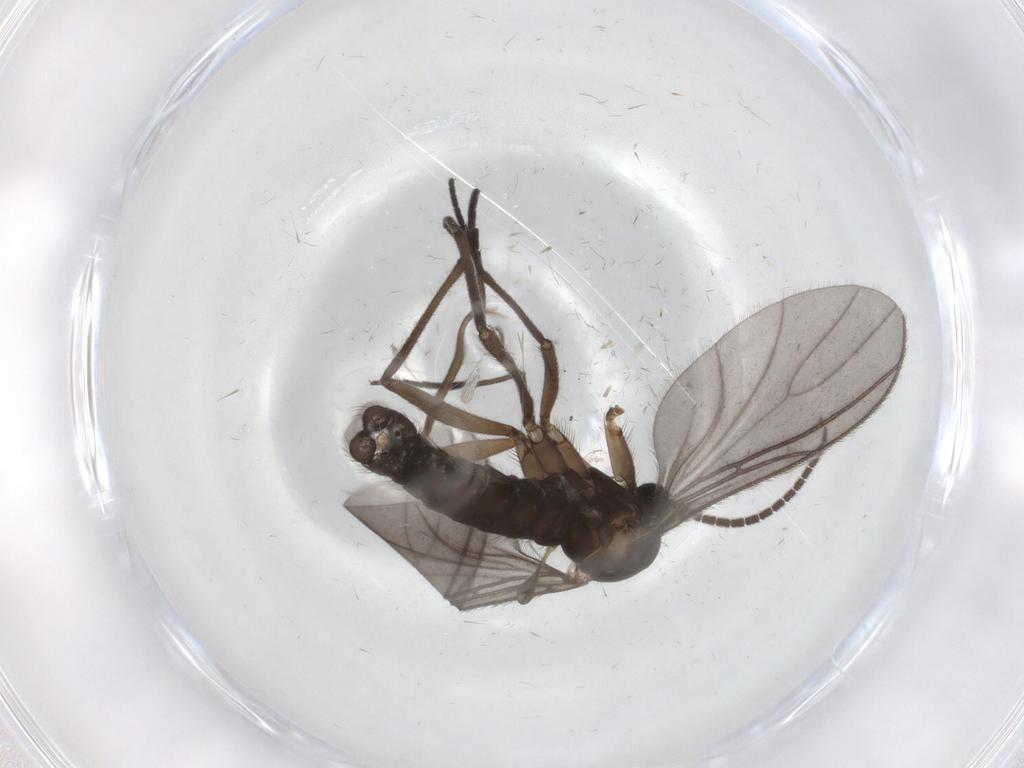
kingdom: Animalia
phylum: Arthropoda
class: Insecta
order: Diptera
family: Sciaridae
